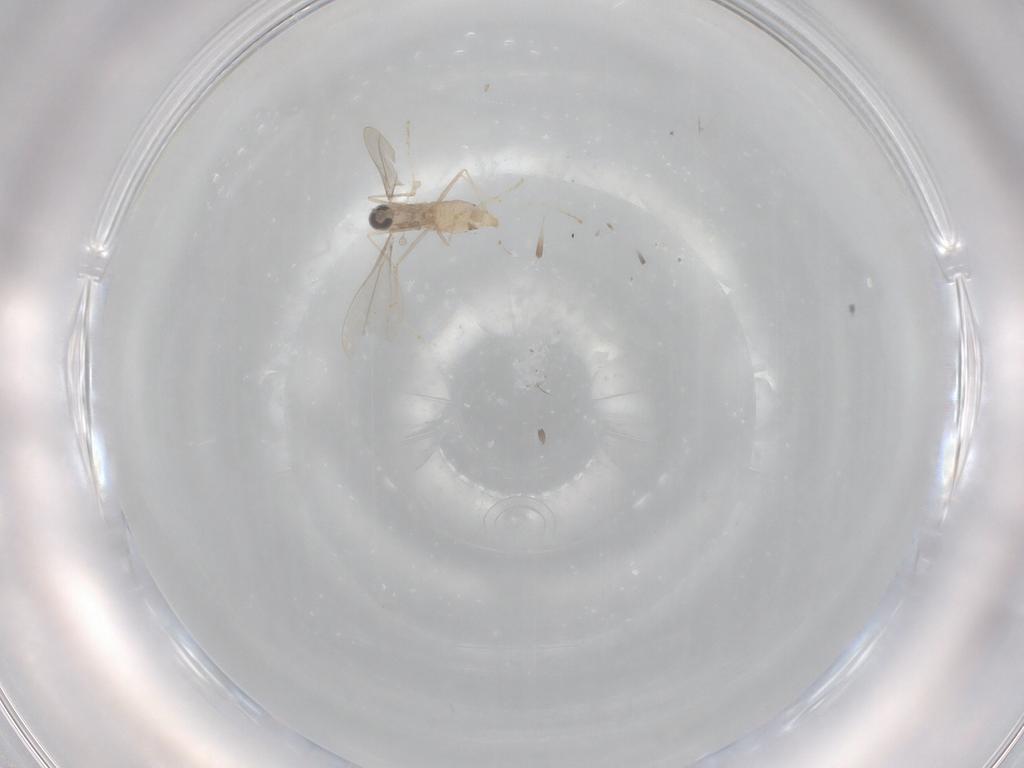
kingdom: Animalia
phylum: Arthropoda
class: Insecta
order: Diptera
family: Cecidomyiidae
